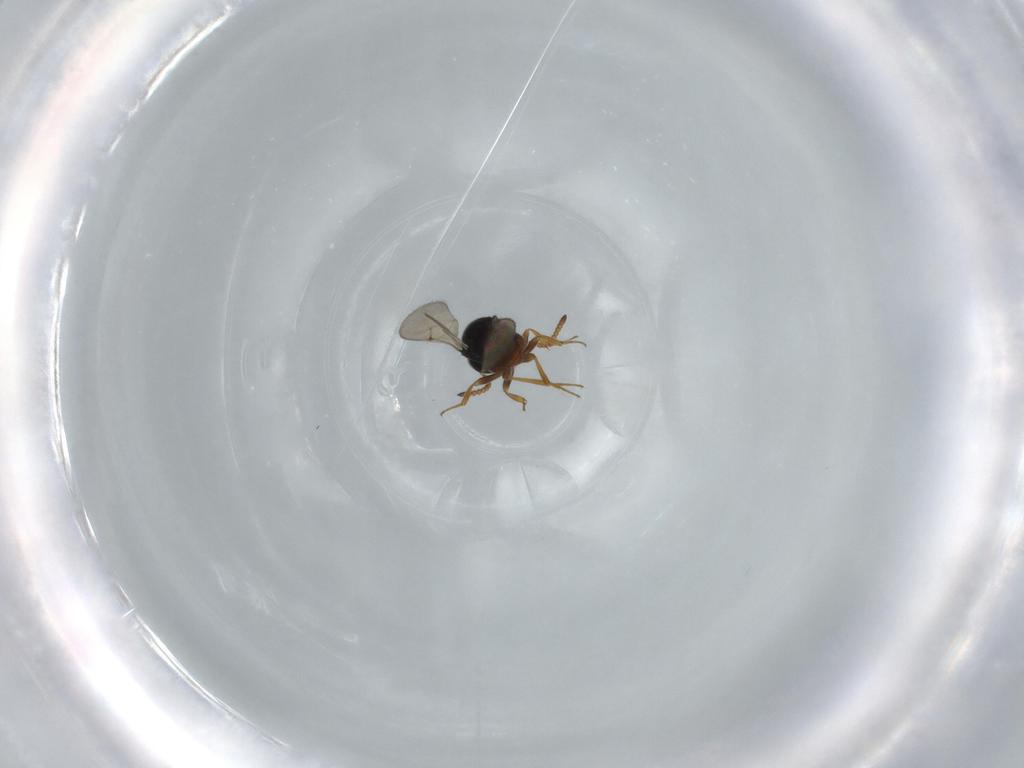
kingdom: Animalia
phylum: Arthropoda
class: Insecta
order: Hymenoptera
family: Scelionidae
